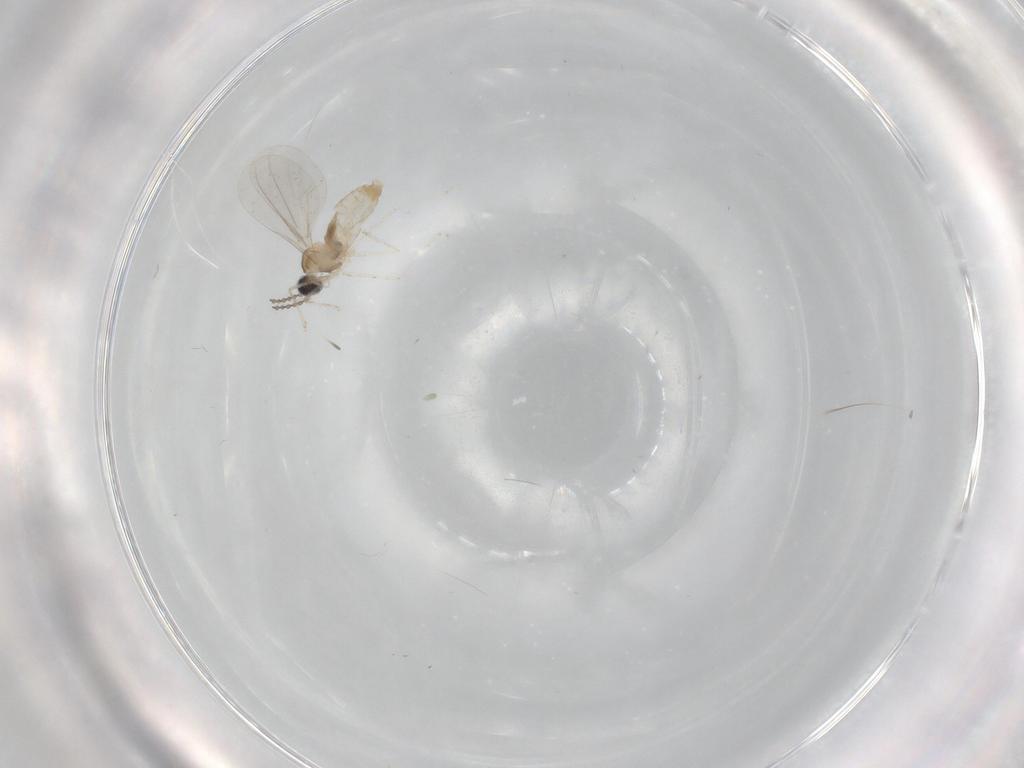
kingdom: Animalia
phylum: Arthropoda
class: Insecta
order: Diptera
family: Cecidomyiidae
